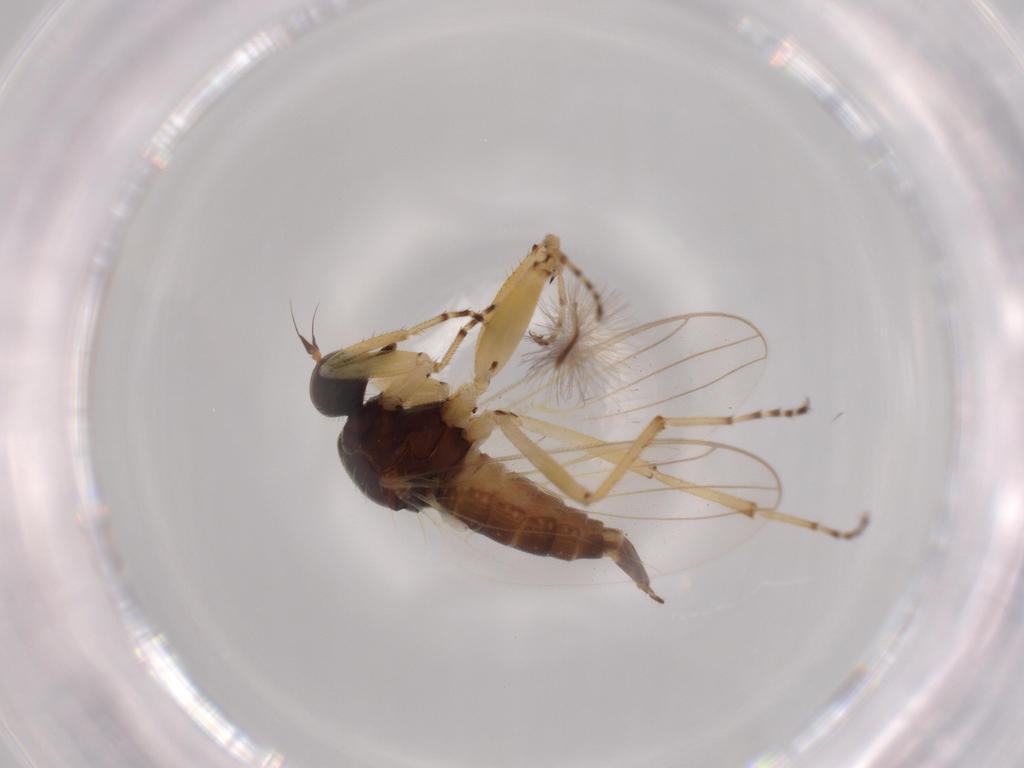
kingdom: Animalia
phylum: Arthropoda
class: Insecta
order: Diptera
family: Hybotidae
